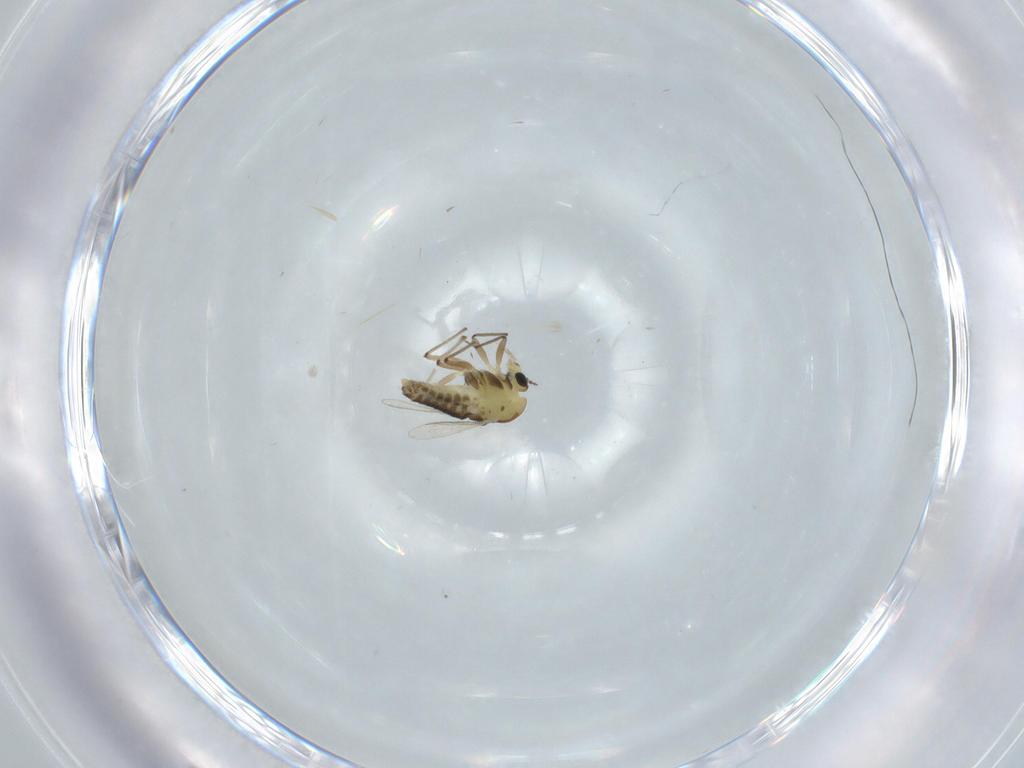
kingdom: Animalia
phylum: Arthropoda
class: Insecta
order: Diptera
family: Chironomidae
